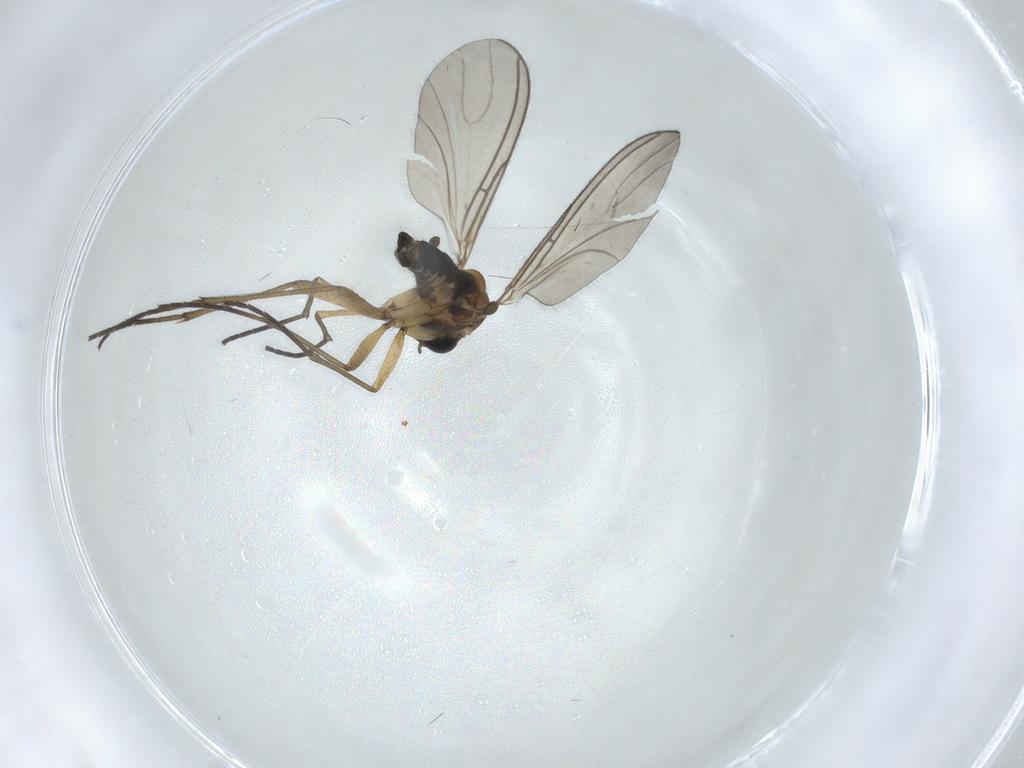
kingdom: Animalia
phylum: Arthropoda
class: Insecta
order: Diptera
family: Sciaridae
